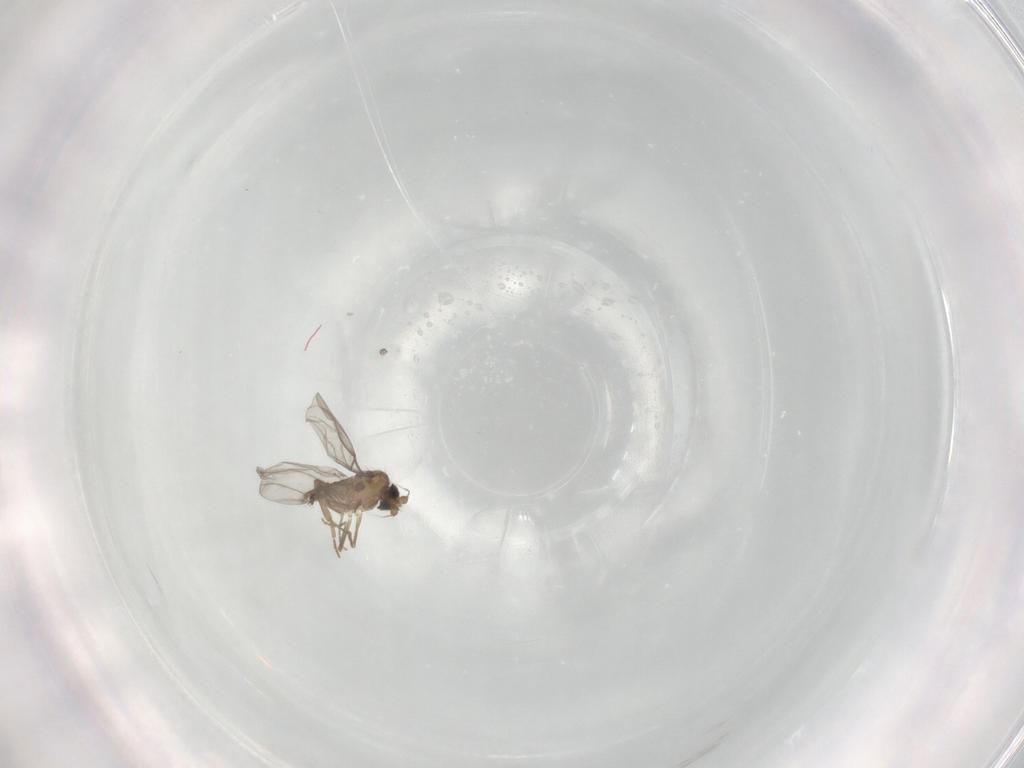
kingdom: Animalia
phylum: Arthropoda
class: Insecta
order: Diptera
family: Cecidomyiidae
